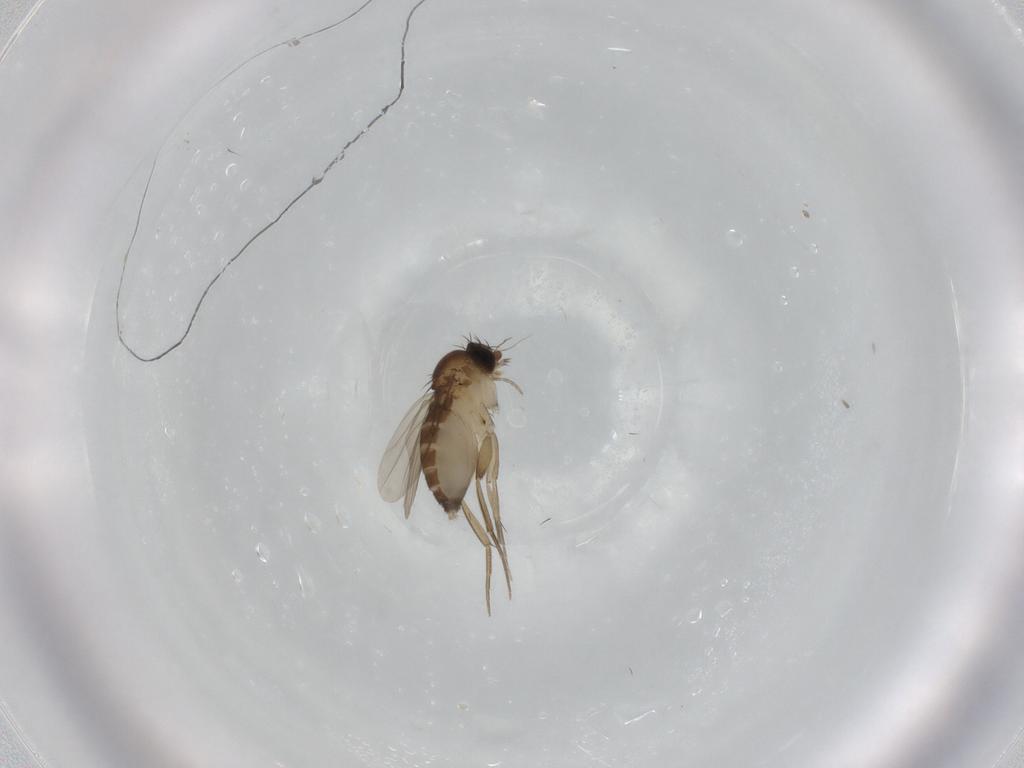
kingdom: Animalia
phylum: Arthropoda
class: Insecta
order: Diptera
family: Phoridae
